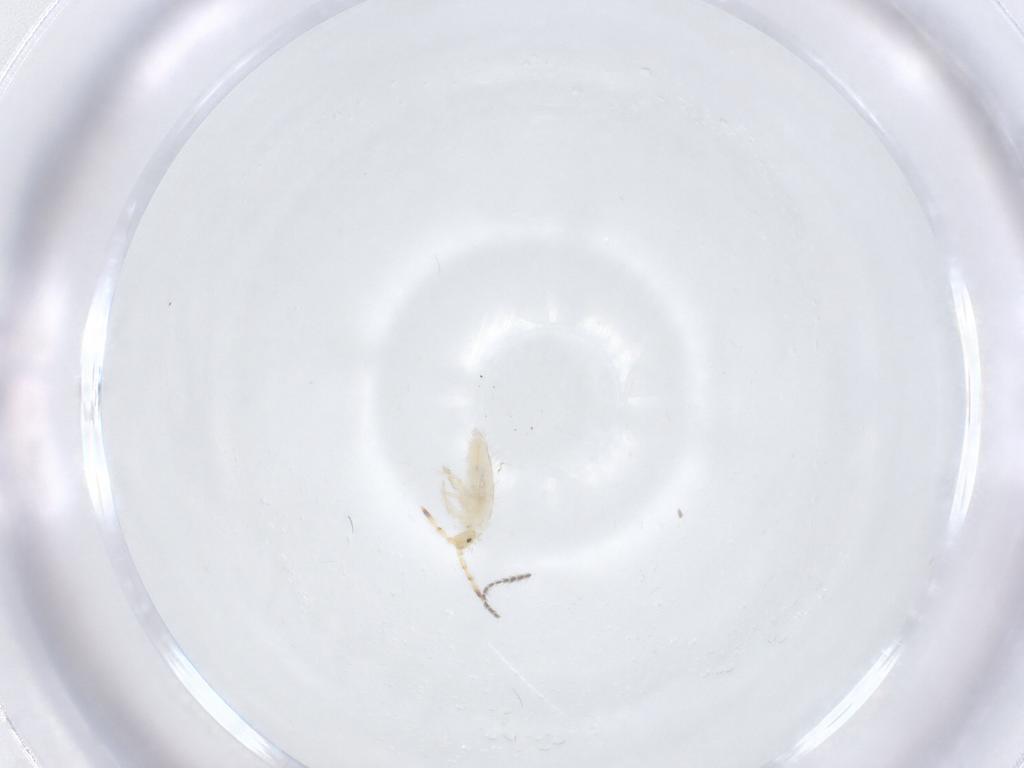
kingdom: Animalia
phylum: Arthropoda
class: Collembola
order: Entomobryomorpha
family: Entomobryidae
